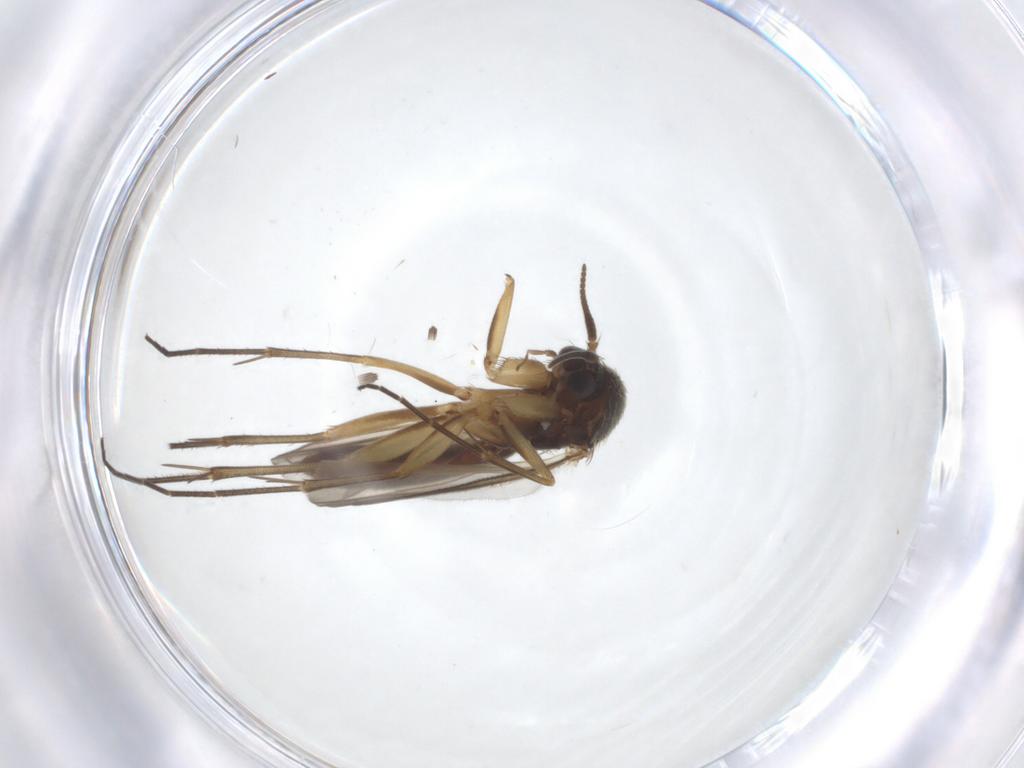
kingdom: Animalia
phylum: Arthropoda
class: Insecta
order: Diptera
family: Mycetophilidae
